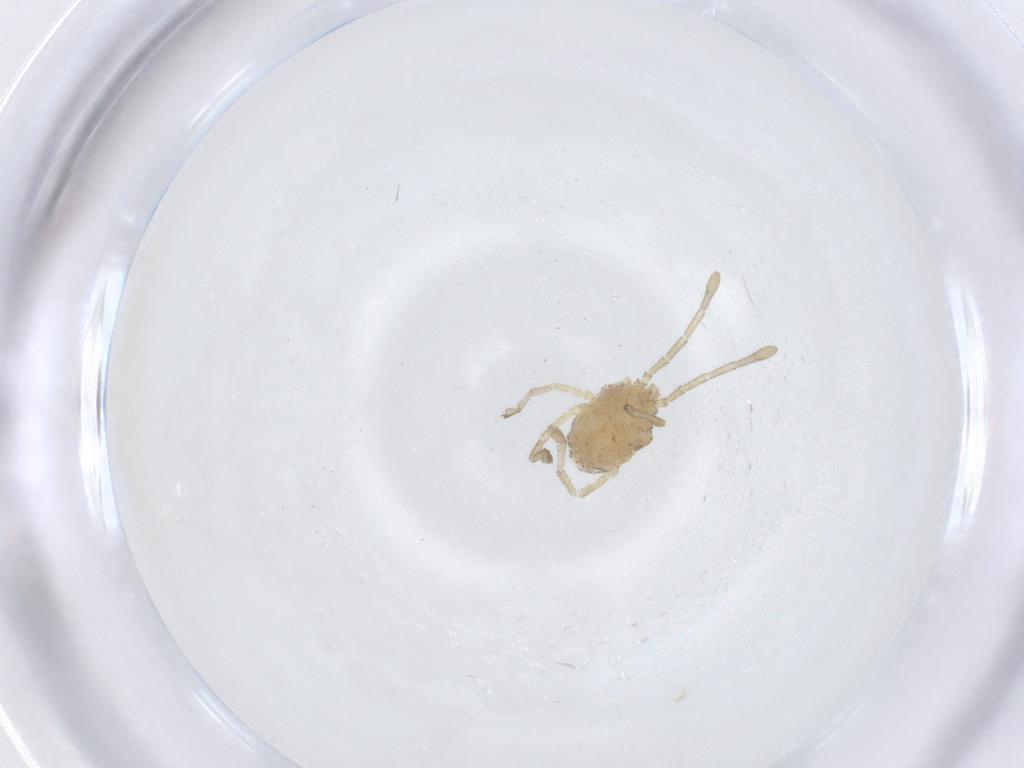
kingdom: Animalia
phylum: Arthropoda
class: Arachnida
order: Trombidiformes
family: Smarididae
